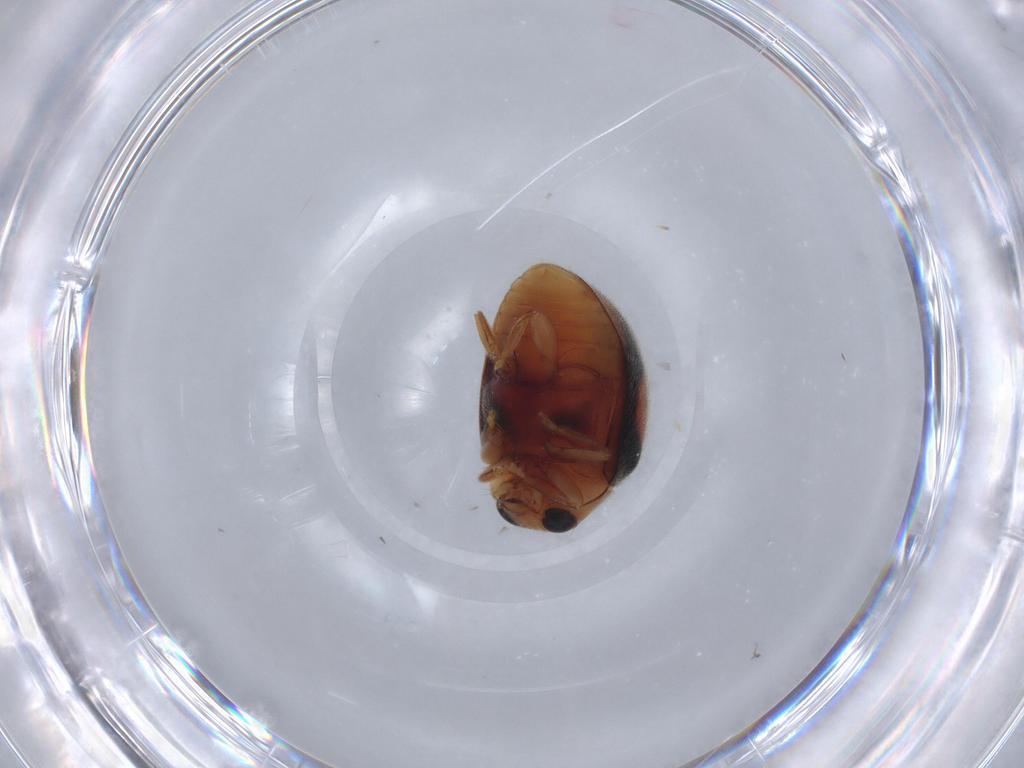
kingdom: Animalia
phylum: Arthropoda
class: Insecta
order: Coleoptera
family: Coccinellidae
